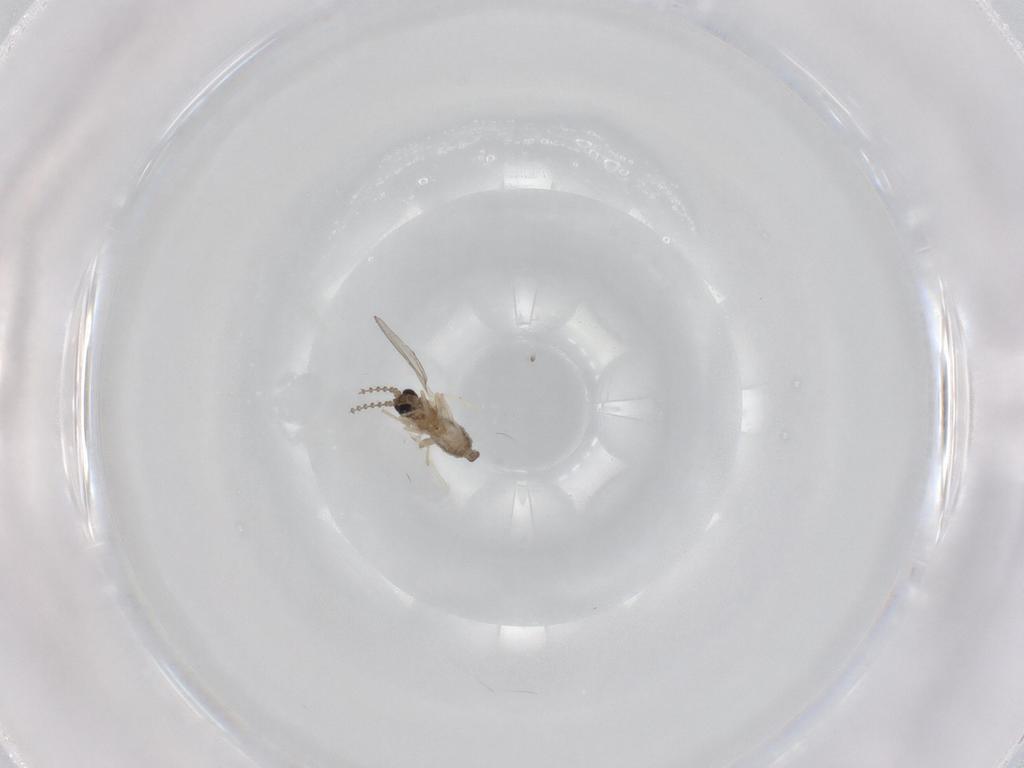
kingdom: Animalia
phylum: Arthropoda
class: Insecta
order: Diptera
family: Cecidomyiidae
